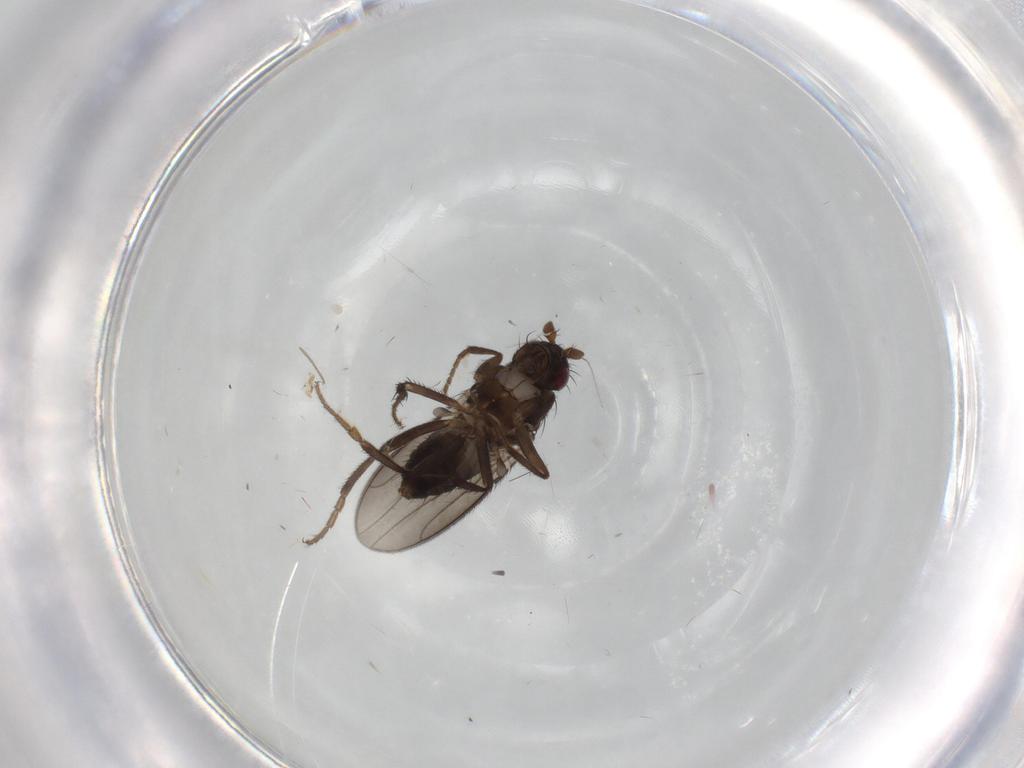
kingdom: Animalia
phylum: Arthropoda
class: Insecta
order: Diptera
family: Sphaeroceridae
